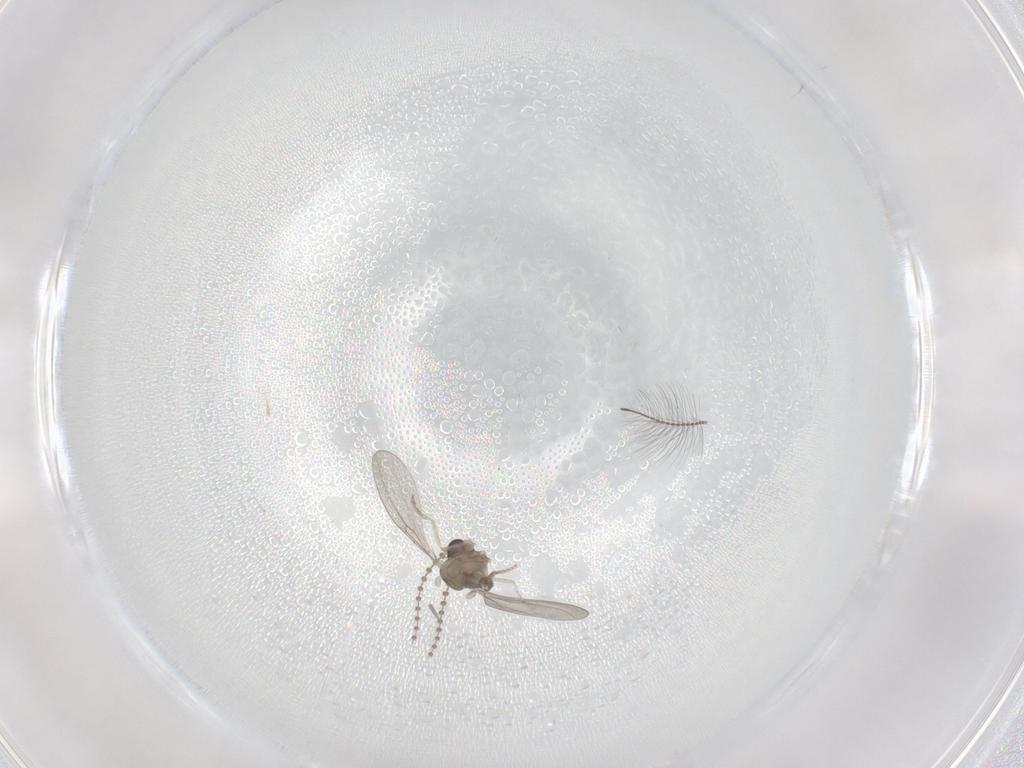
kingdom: Animalia
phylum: Arthropoda
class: Insecta
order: Diptera
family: Cecidomyiidae
